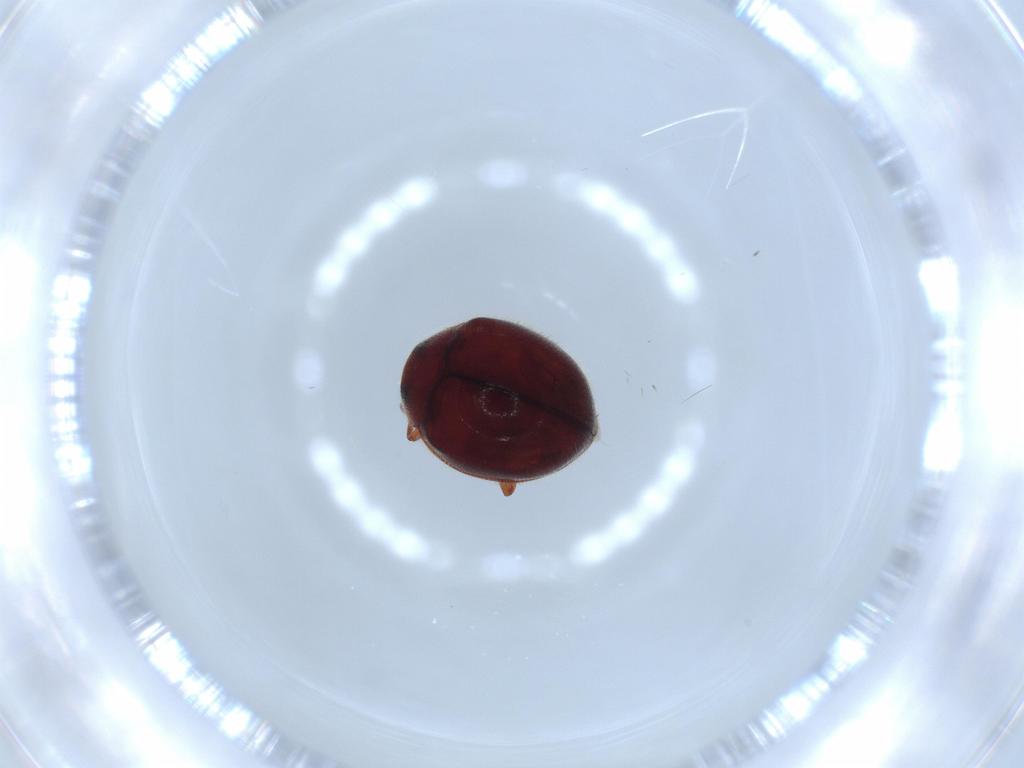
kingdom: Animalia
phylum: Arthropoda
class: Insecta
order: Coleoptera
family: Coccinellidae
